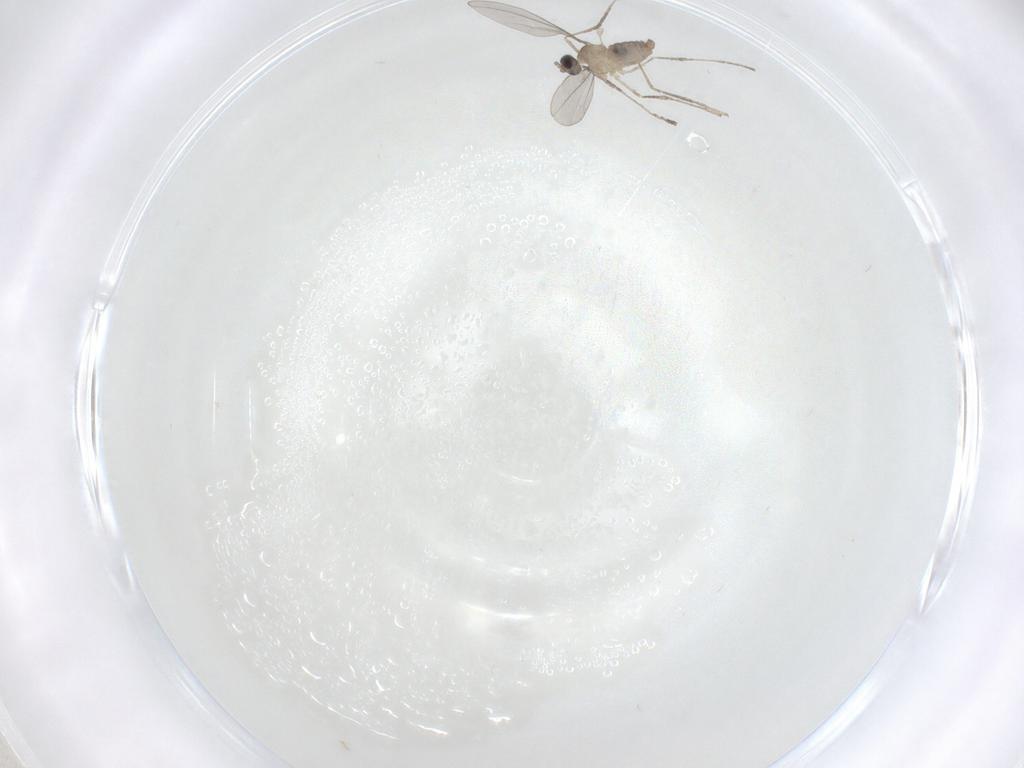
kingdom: Animalia
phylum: Arthropoda
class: Insecta
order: Diptera
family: Cecidomyiidae
